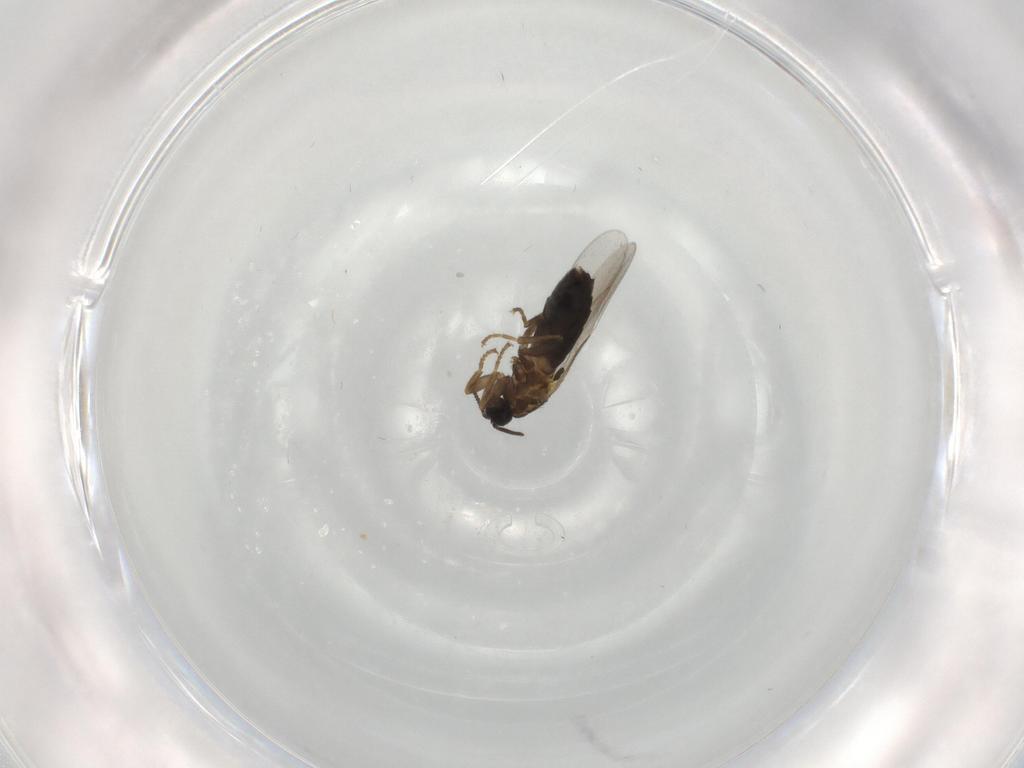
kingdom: Animalia
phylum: Arthropoda
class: Insecta
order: Diptera
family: Scatopsidae
